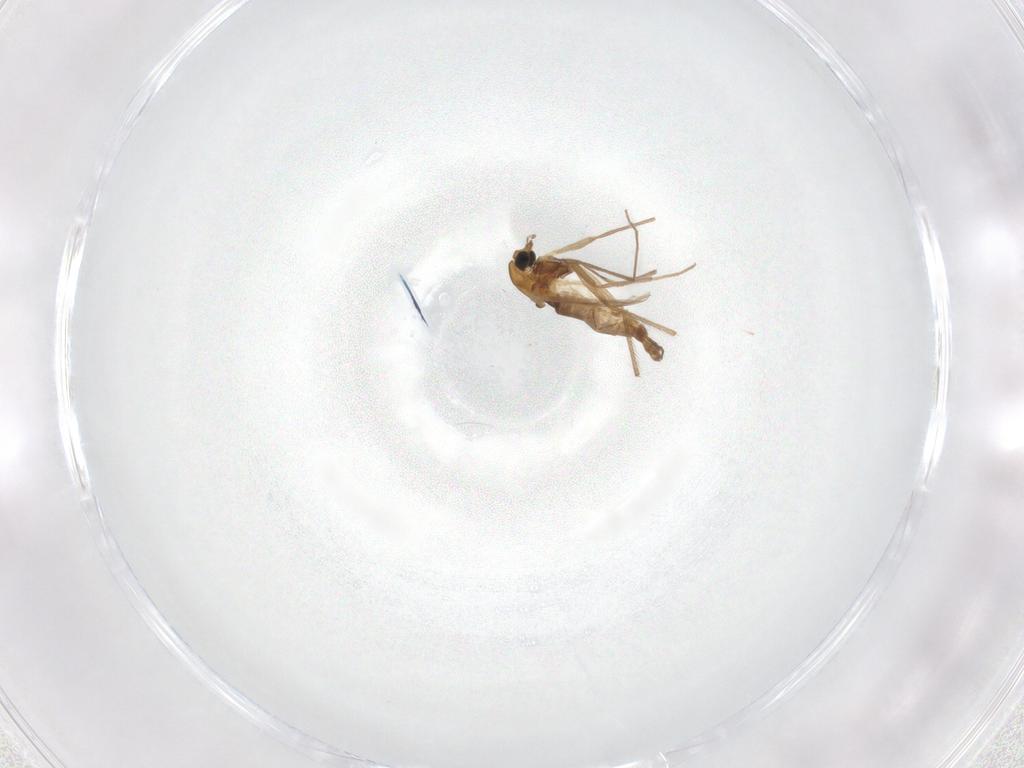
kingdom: Animalia
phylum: Arthropoda
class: Insecta
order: Diptera
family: Chironomidae
